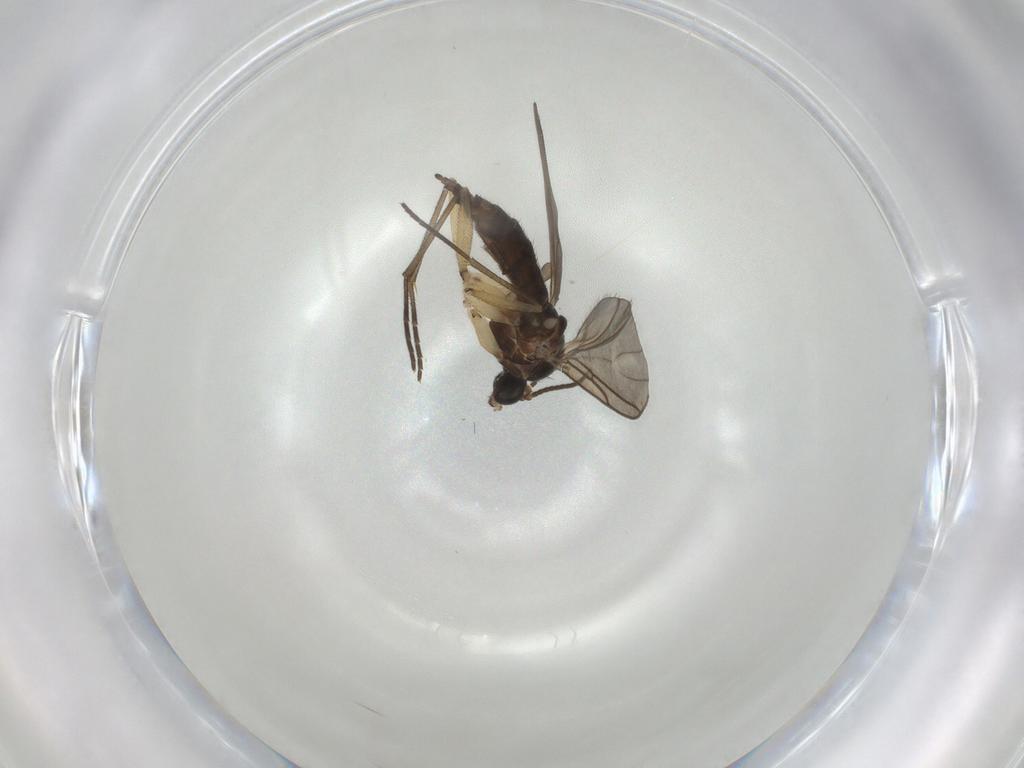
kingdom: Animalia
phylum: Arthropoda
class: Insecta
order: Diptera
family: Sciaridae
